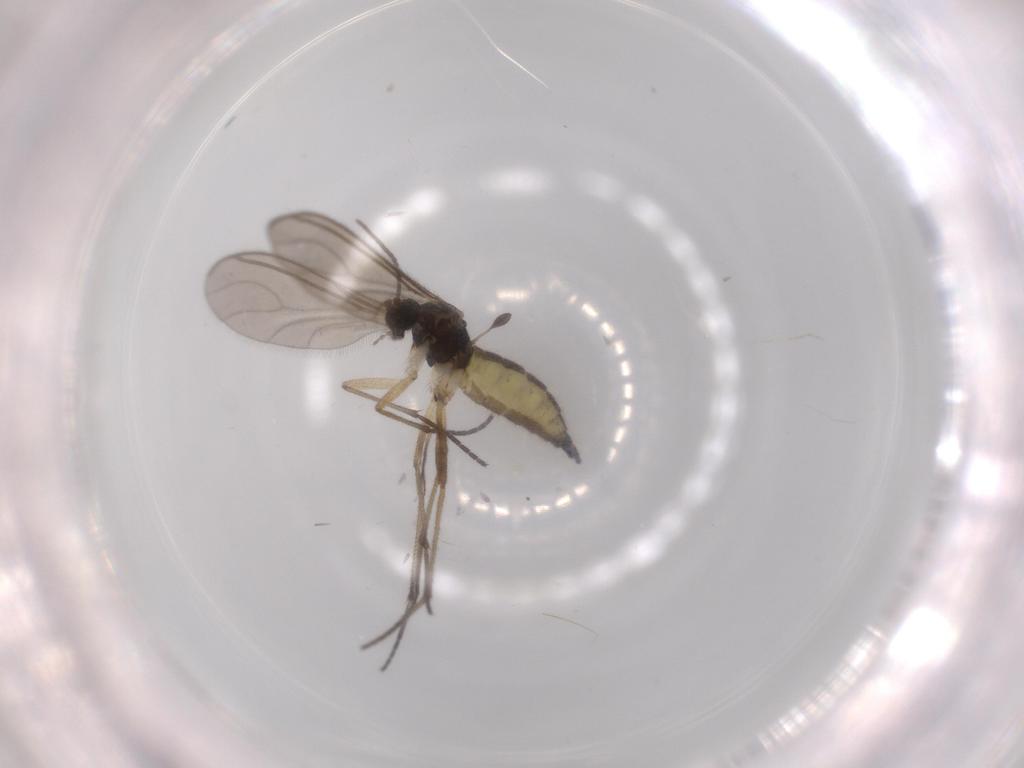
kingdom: Animalia
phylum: Arthropoda
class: Insecta
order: Diptera
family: Sciaridae
